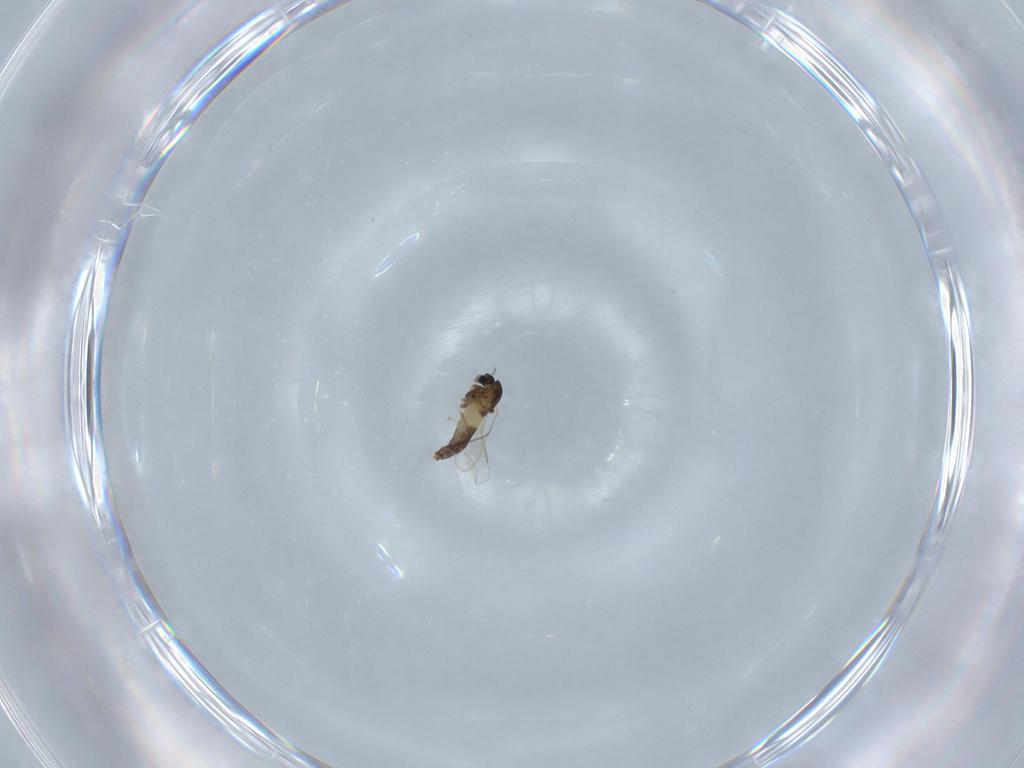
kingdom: Animalia
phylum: Arthropoda
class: Insecta
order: Diptera
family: Chironomidae
